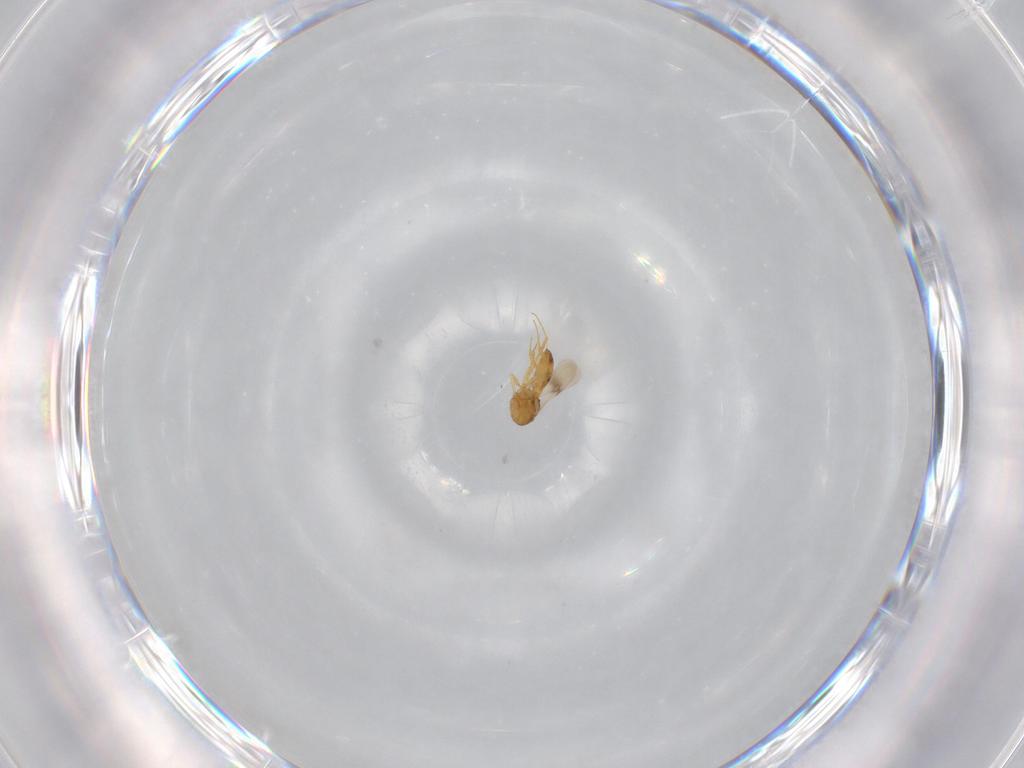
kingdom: Animalia
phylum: Arthropoda
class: Insecta
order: Hymenoptera
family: Scelionidae
